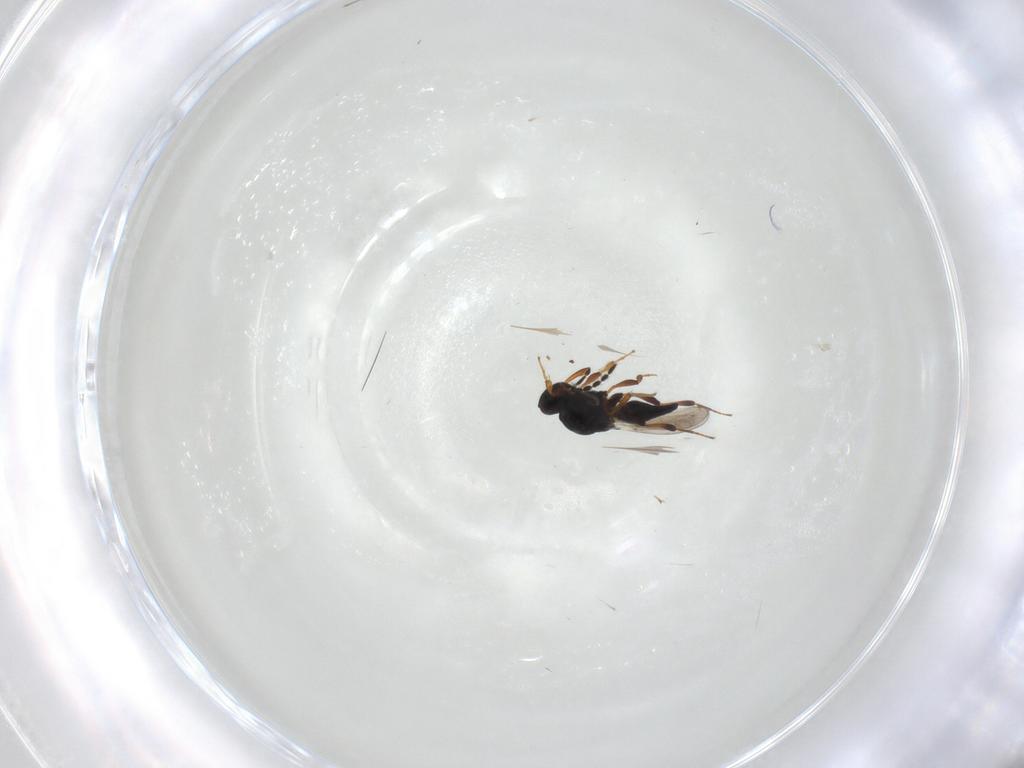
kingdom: Animalia
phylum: Arthropoda
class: Insecta
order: Hymenoptera
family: Platygastridae
